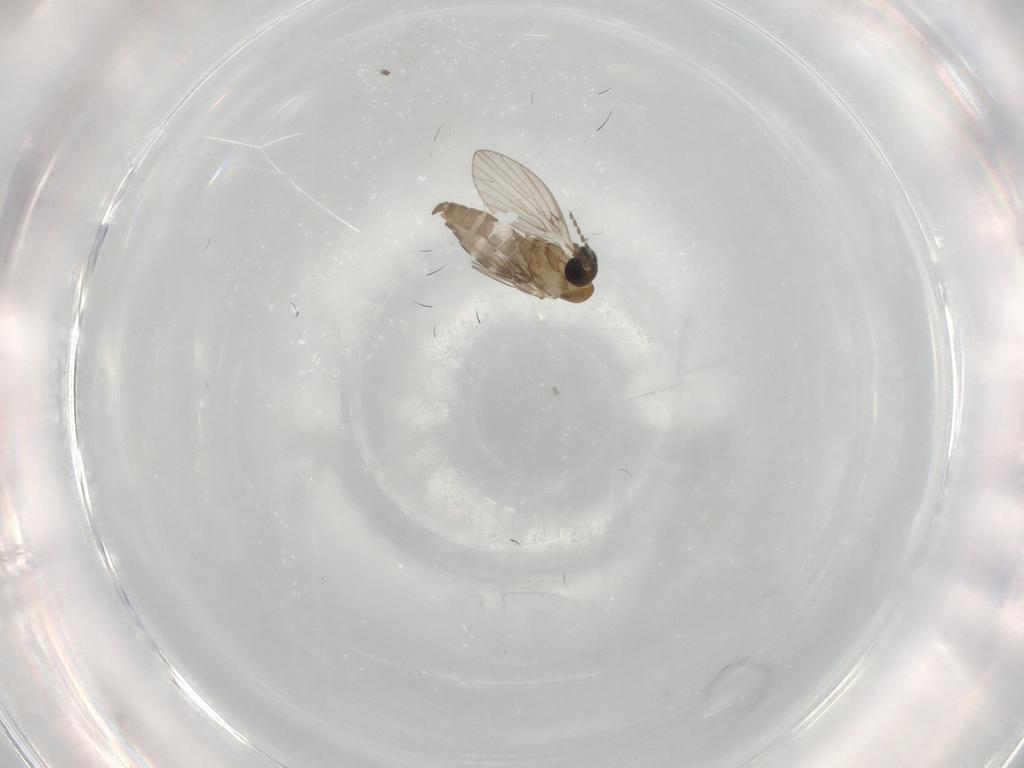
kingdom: Animalia
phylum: Arthropoda
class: Insecta
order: Diptera
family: Psychodidae
